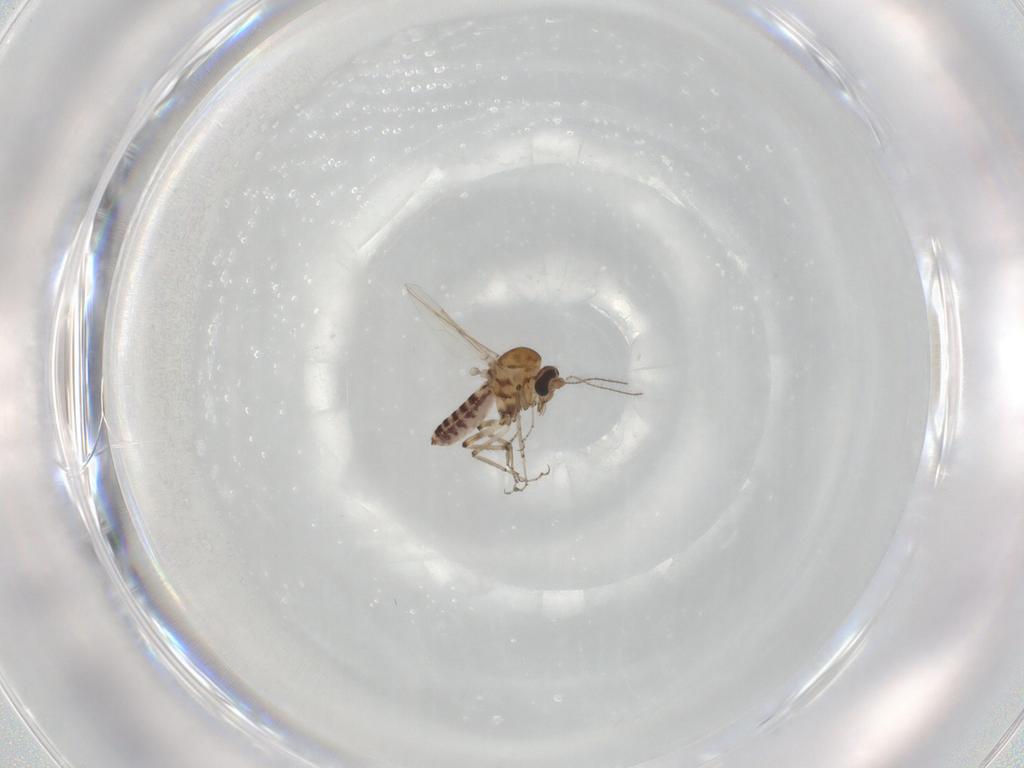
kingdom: Animalia
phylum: Arthropoda
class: Insecta
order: Diptera
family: Ceratopogonidae
